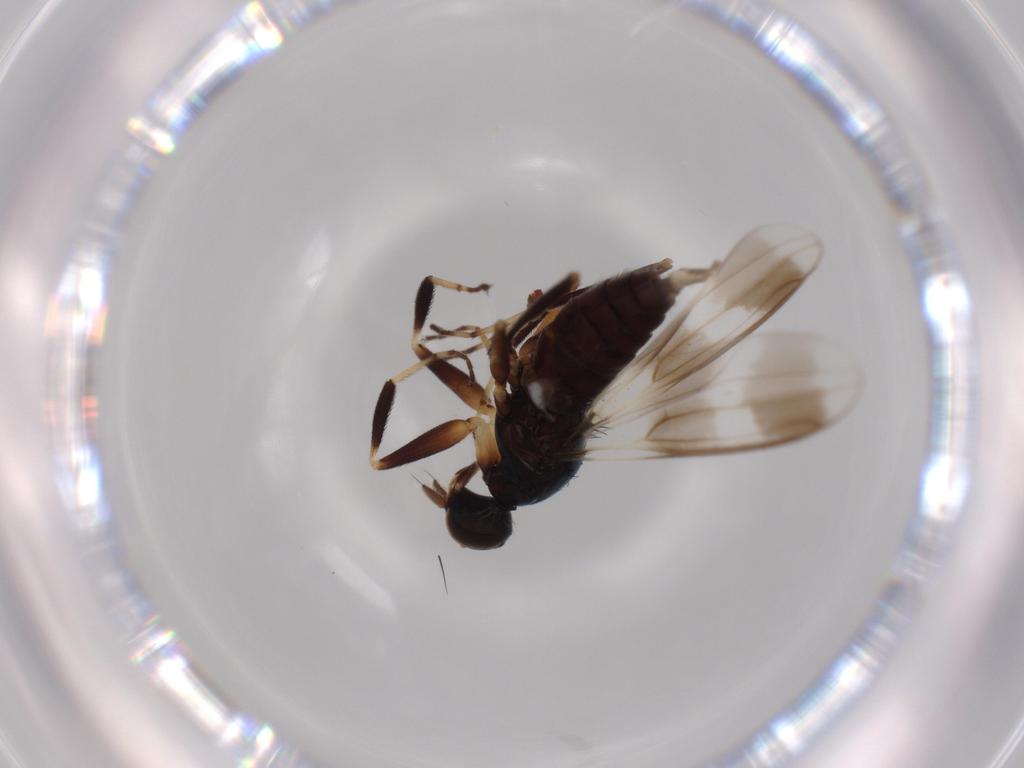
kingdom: Animalia
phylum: Arthropoda
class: Insecta
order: Diptera
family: Hybotidae
